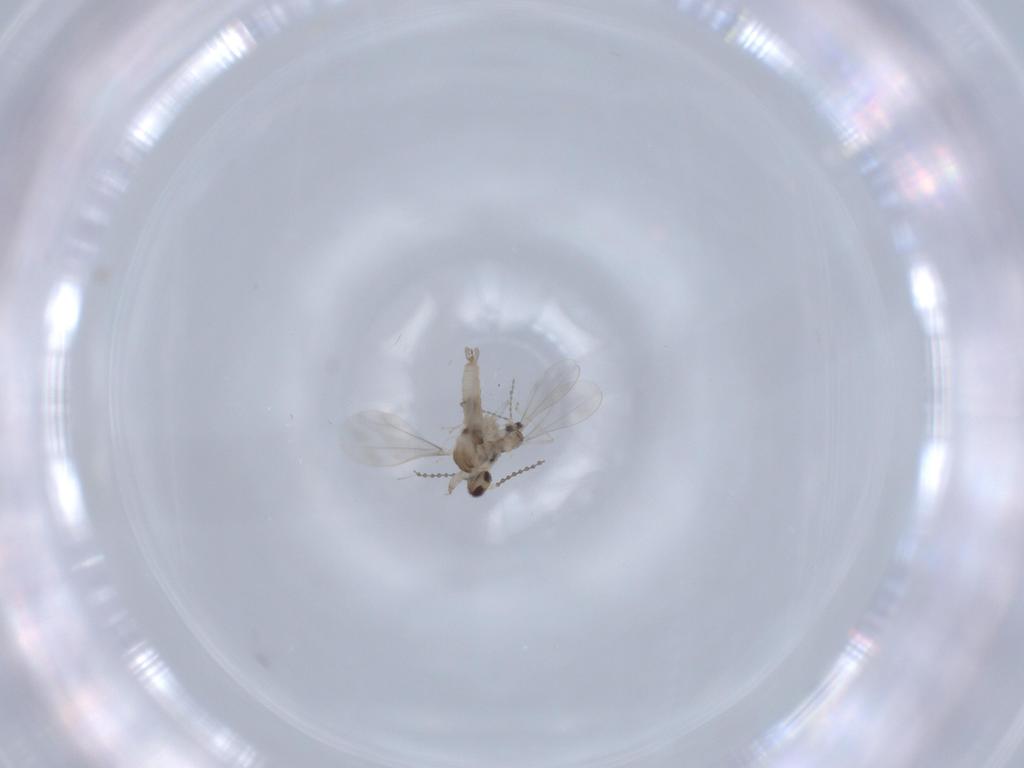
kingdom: Animalia
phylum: Arthropoda
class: Insecta
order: Diptera
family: Cecidomyiidae
